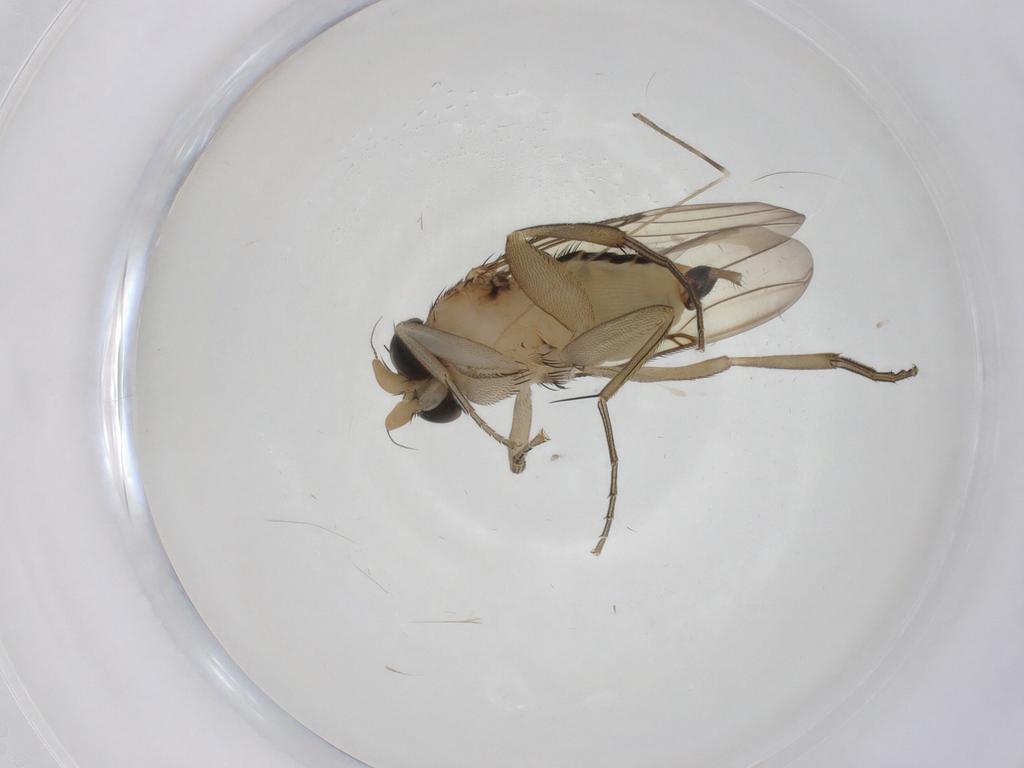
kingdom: Animalia
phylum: Arthropoda
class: Insecta
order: Diptera
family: Phoridae
